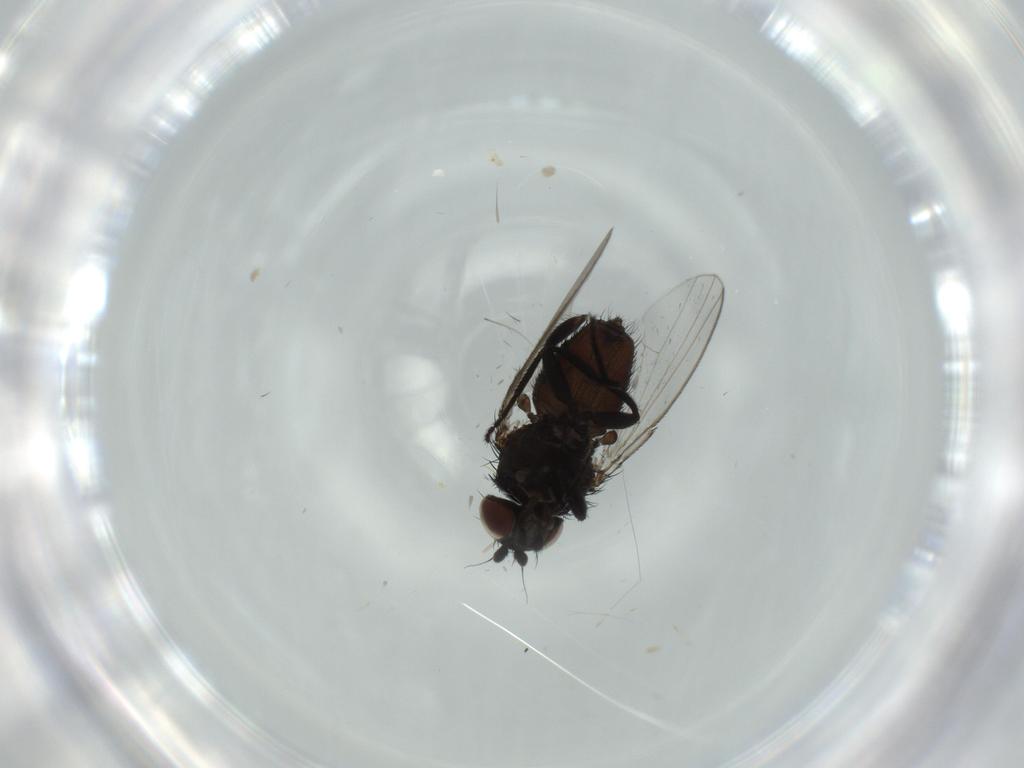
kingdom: Animalia
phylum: Arthropoda
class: Insecta
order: Diptera
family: Milichiidae
